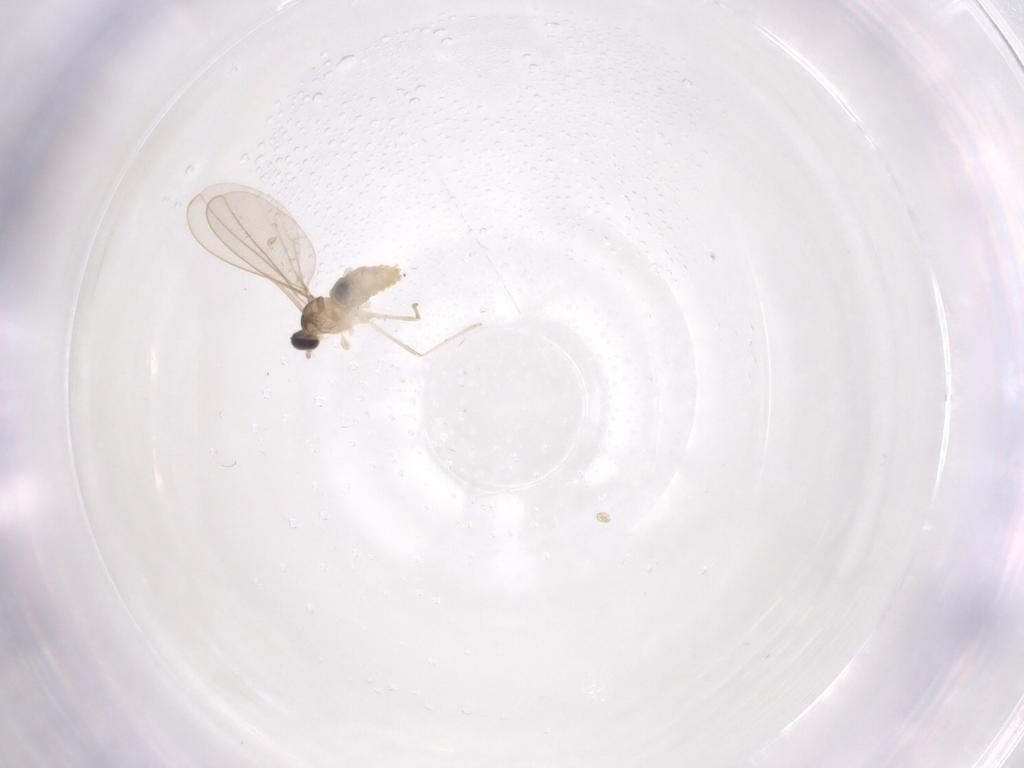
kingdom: Animalia
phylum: Arthropoda
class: Insecta
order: Diptera
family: Cecidomyiidae
